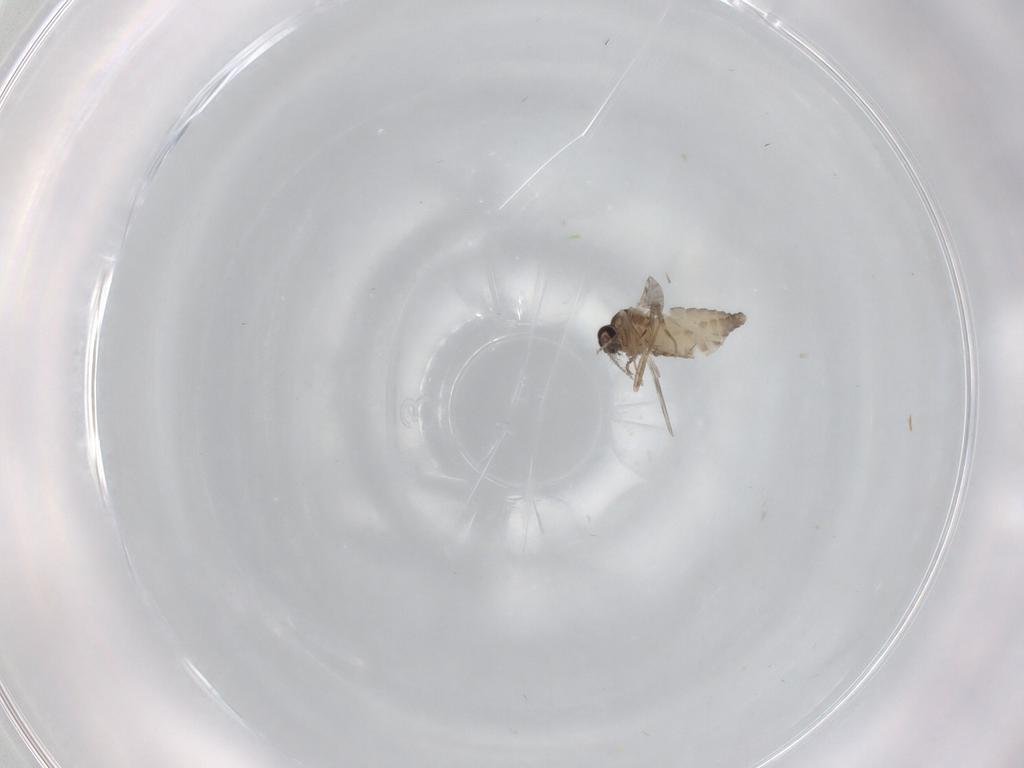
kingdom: Animalia
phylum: Arthropoda
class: Insecta
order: Diptera
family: Ceratopogonidae
